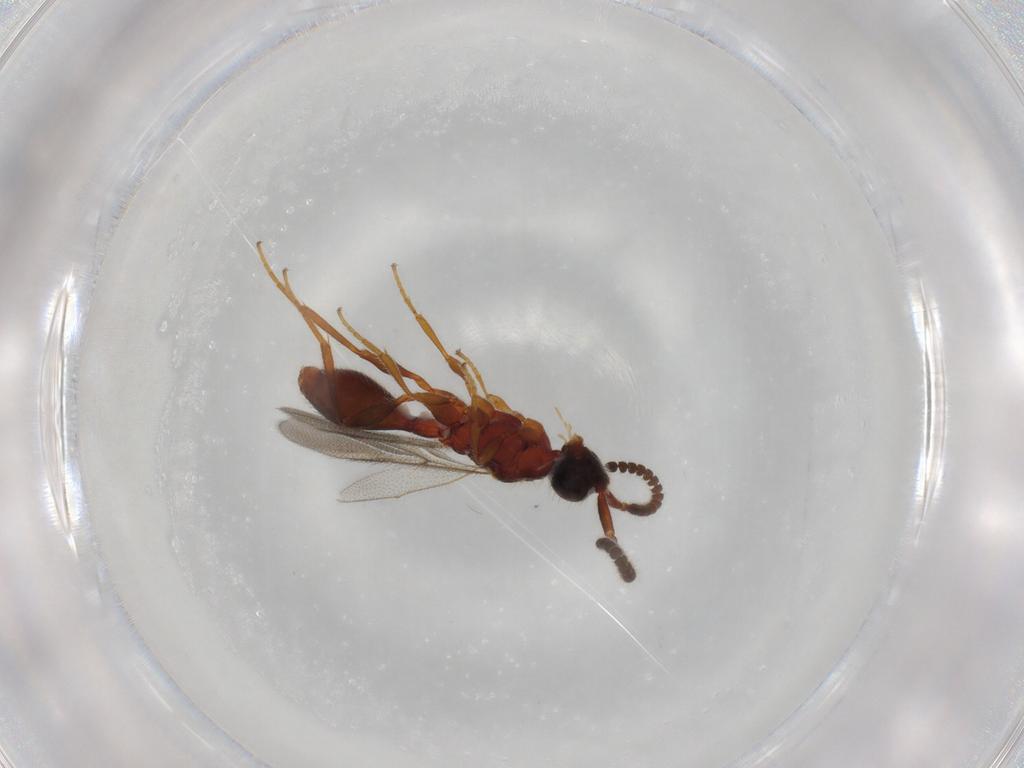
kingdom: Animalia
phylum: Arthropoda
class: Insecta
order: Hymenoptera
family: Diapriidae
